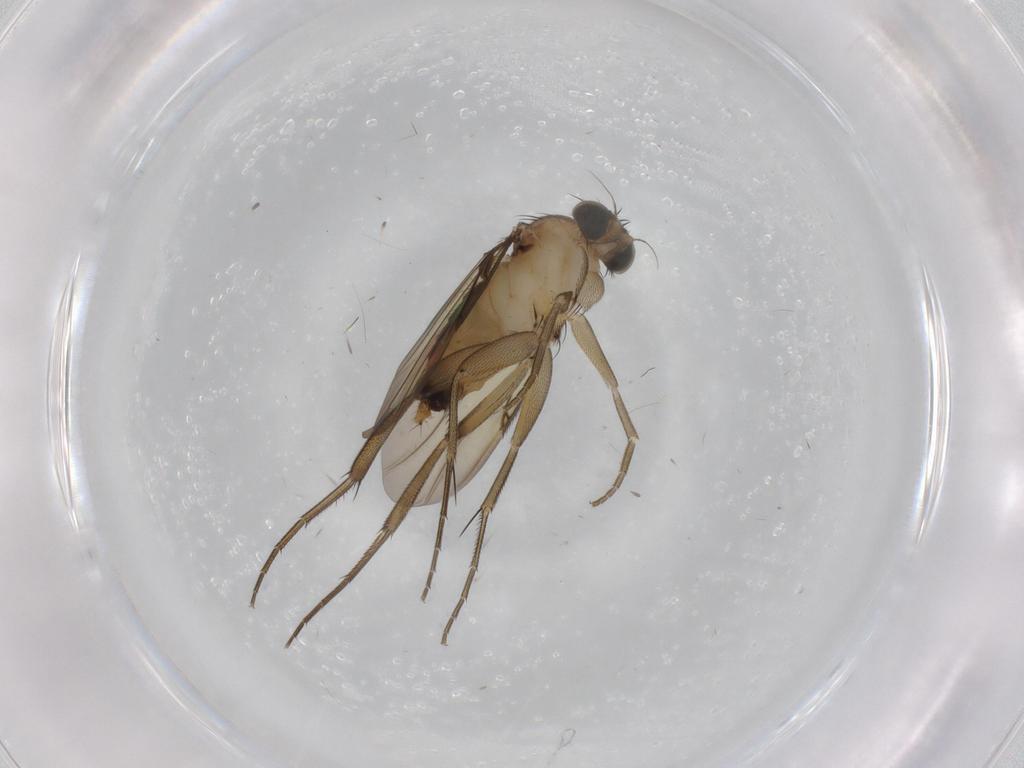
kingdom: Animalia
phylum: Arthropoda
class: Insecta
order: Diptera
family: Phoridae
